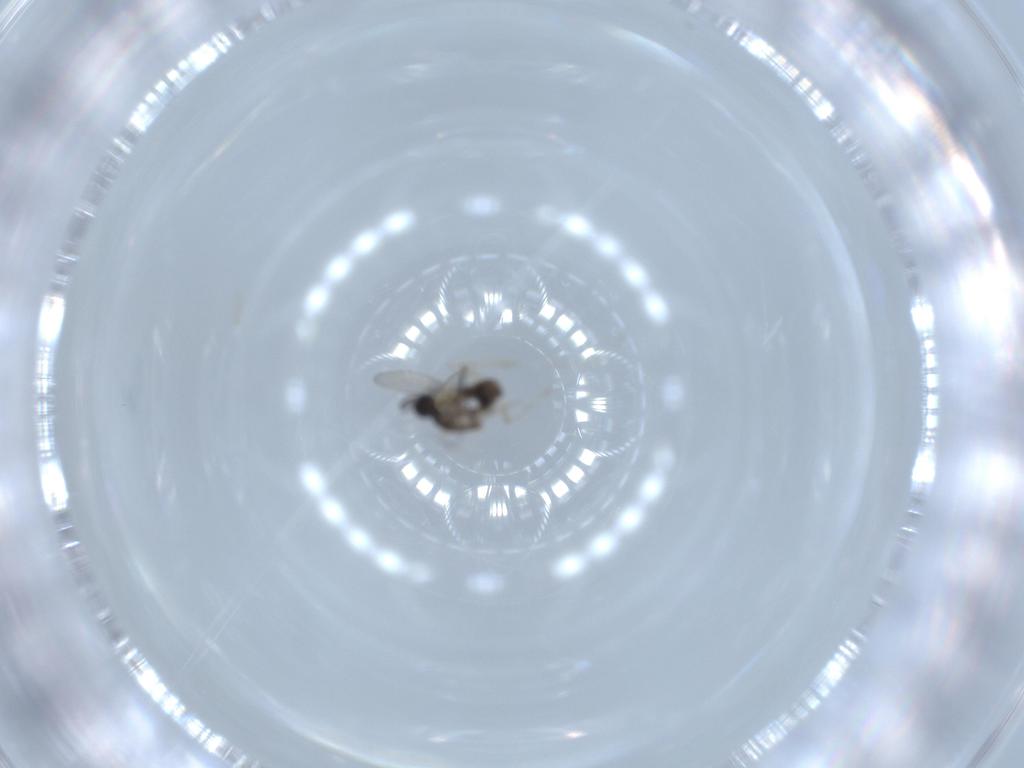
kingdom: Animalia
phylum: Arthropoda
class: Insecta
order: Diptera
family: Cecidomyiidae
